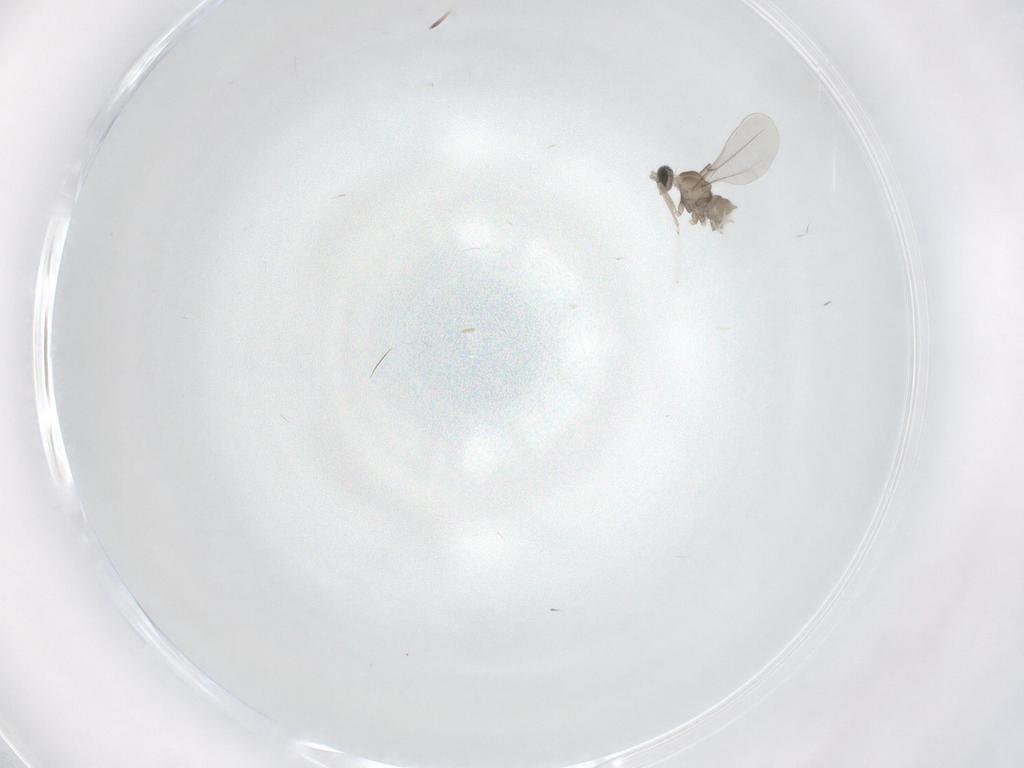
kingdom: Animalia
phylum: Arthropoda
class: Insecta
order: Diptera
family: Cecidomyiidae
